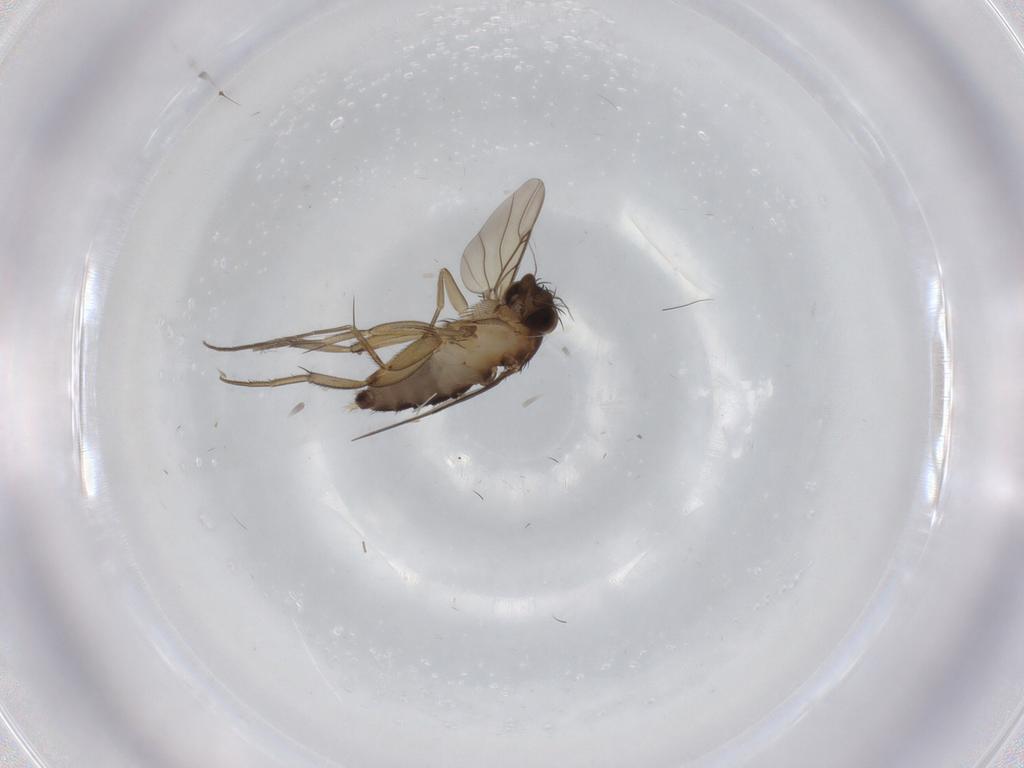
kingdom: Animalia
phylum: Arthropoda
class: Insecta
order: Diptera
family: Phoridae
